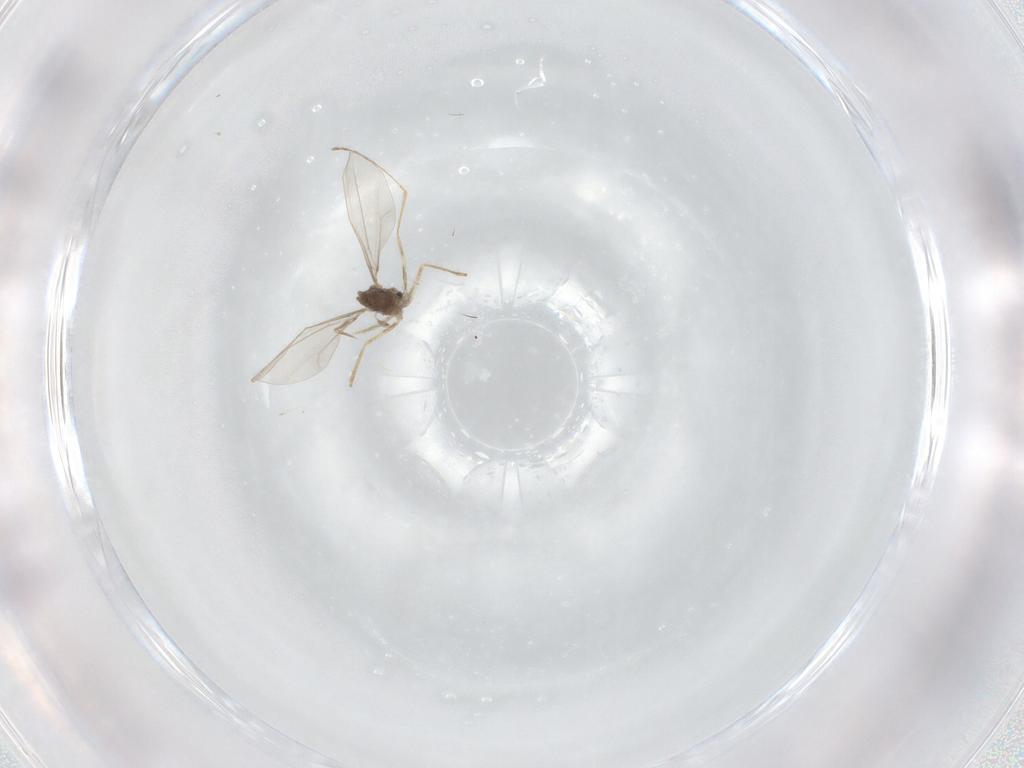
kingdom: Animalia
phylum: Arthropoda
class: Insecta
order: Diptera
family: Cecidomyiidae
